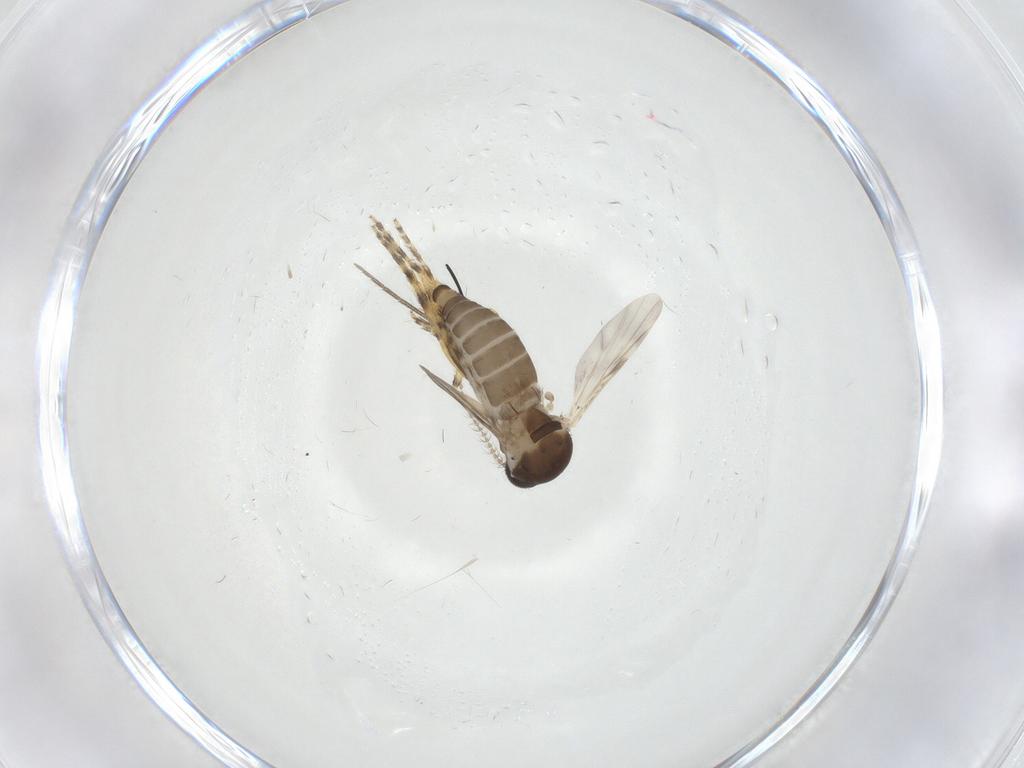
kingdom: Animalia
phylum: Arthropoda
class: Insecta
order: Diptera
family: Ceratopogonidae
